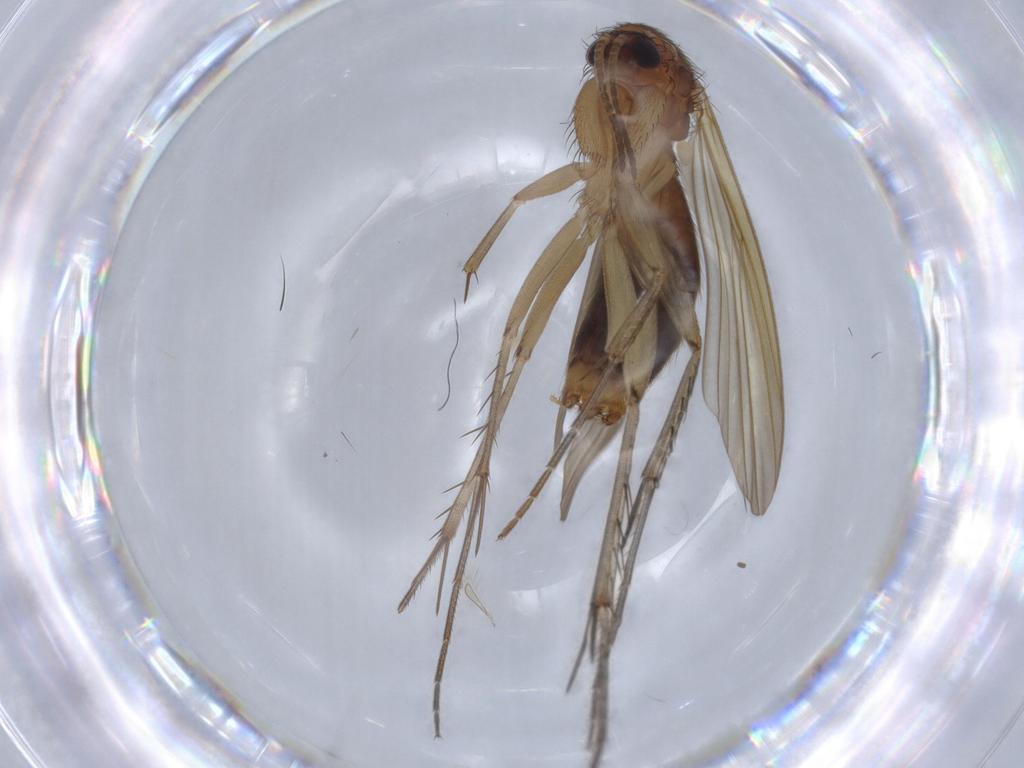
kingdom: Animalia
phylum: Arthropoda
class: Insecta
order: Diptera
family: Mycetophilidae
